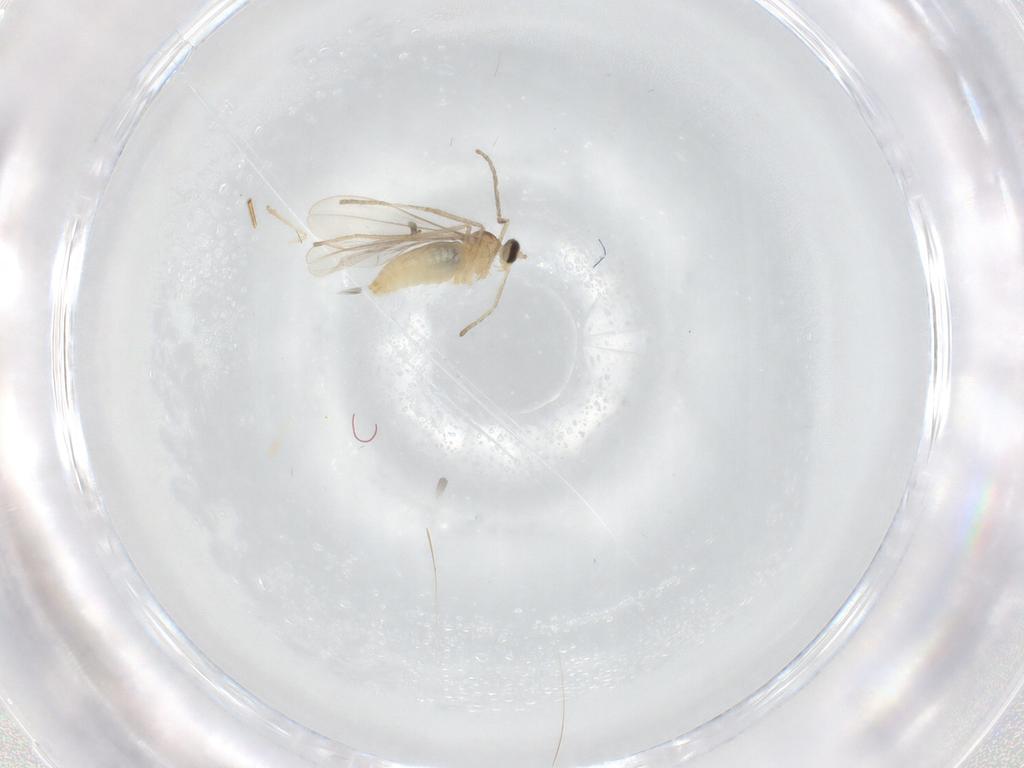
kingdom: Animalia
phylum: Arthropoda
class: Insecta
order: Diptera
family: Cecidomyiidae
